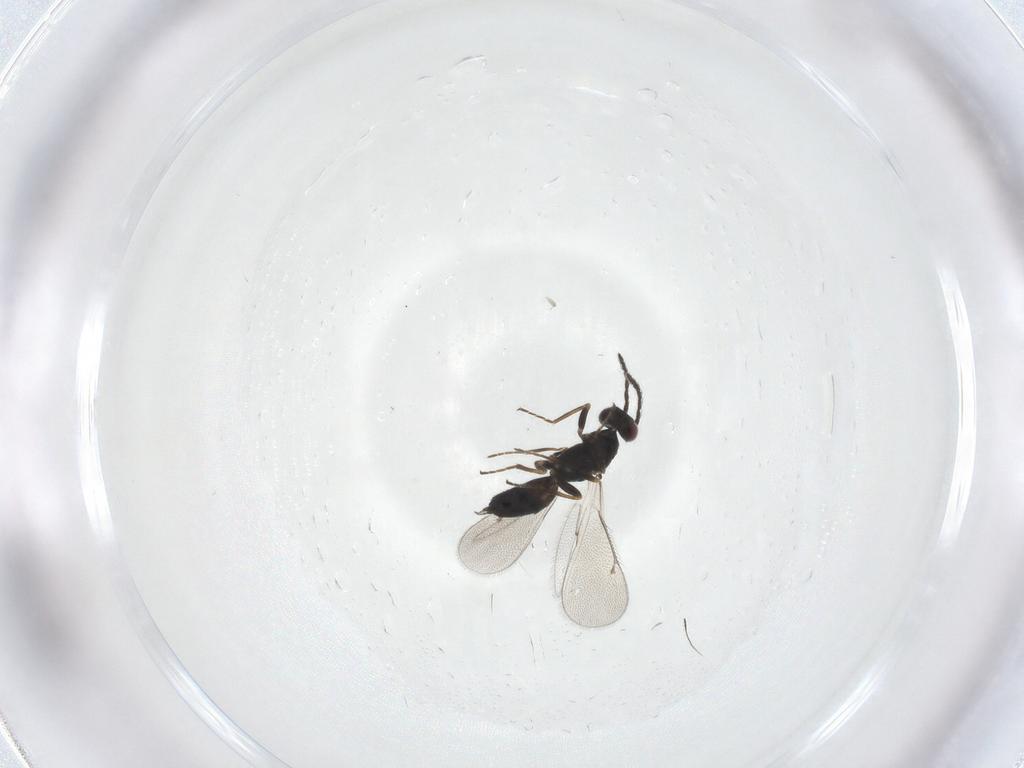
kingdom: Animalia
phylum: Arthropoda
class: Insecta
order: Hymenoptera
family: Eulophidae
